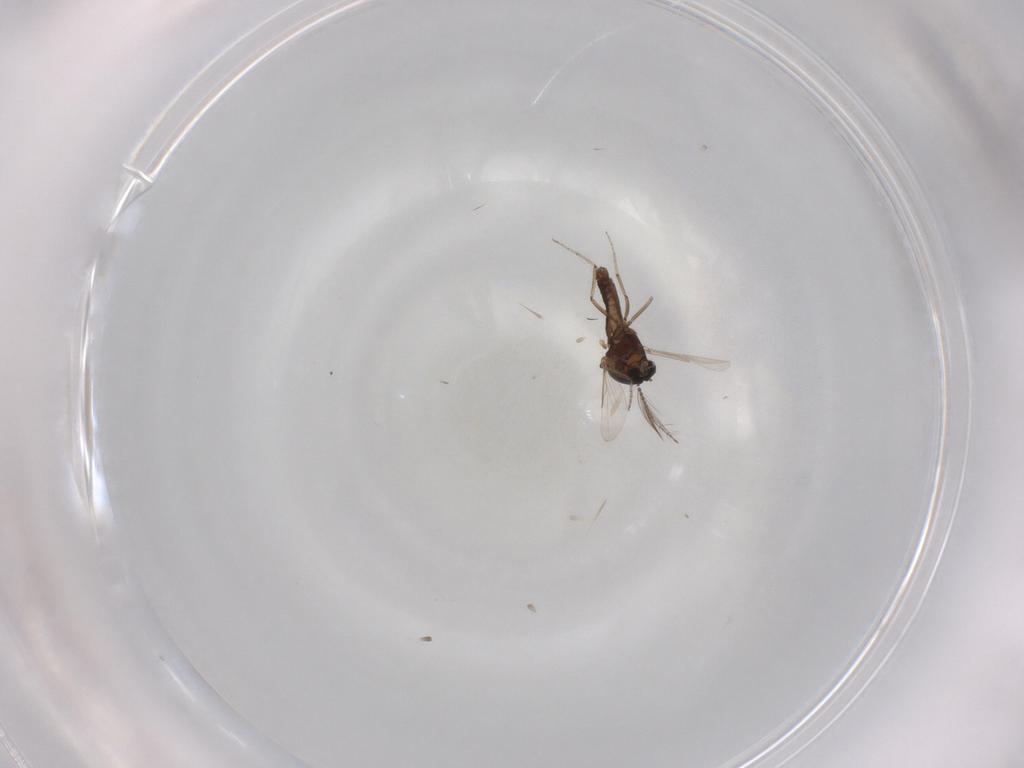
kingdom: Animalia
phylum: Arthropoda
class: Insecta
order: Diptera
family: Ceratopogonidae
